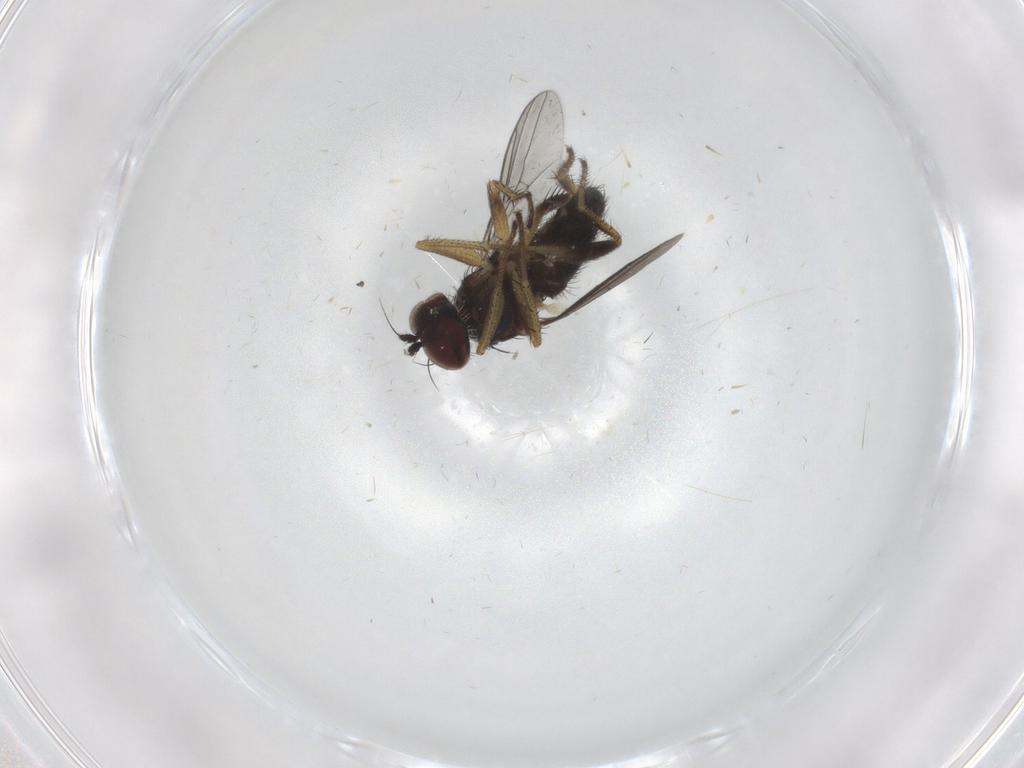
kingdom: Animalia
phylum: Arthropoda
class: Insecta
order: Diptera
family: Dolichopodidae
